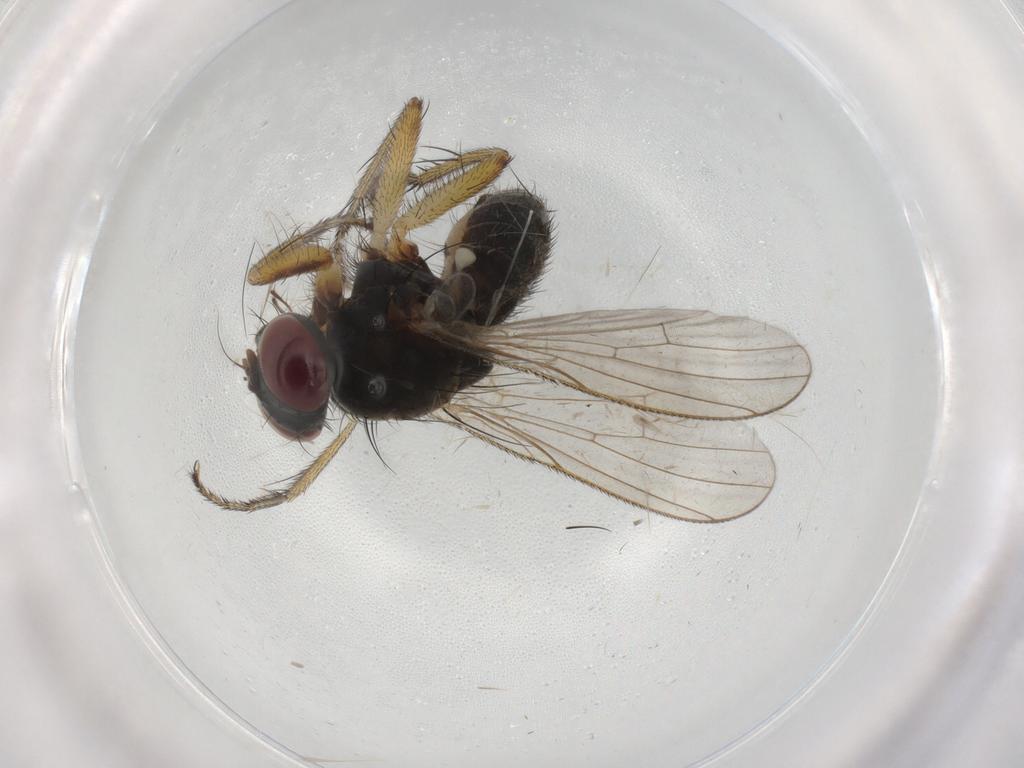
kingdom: Animalia
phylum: Arthropoda
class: Insecta
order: Diptera
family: Muscidae
